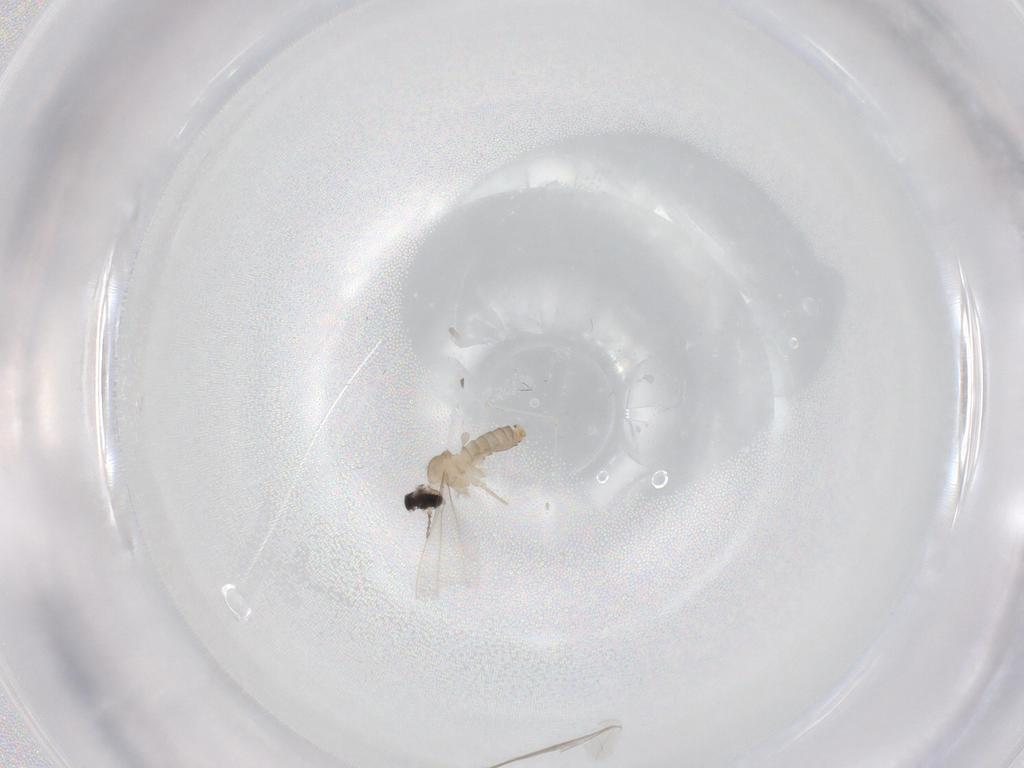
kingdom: Animalia
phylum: Arthropoda
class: Insecta
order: Diptera
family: Cecidomyiidae
